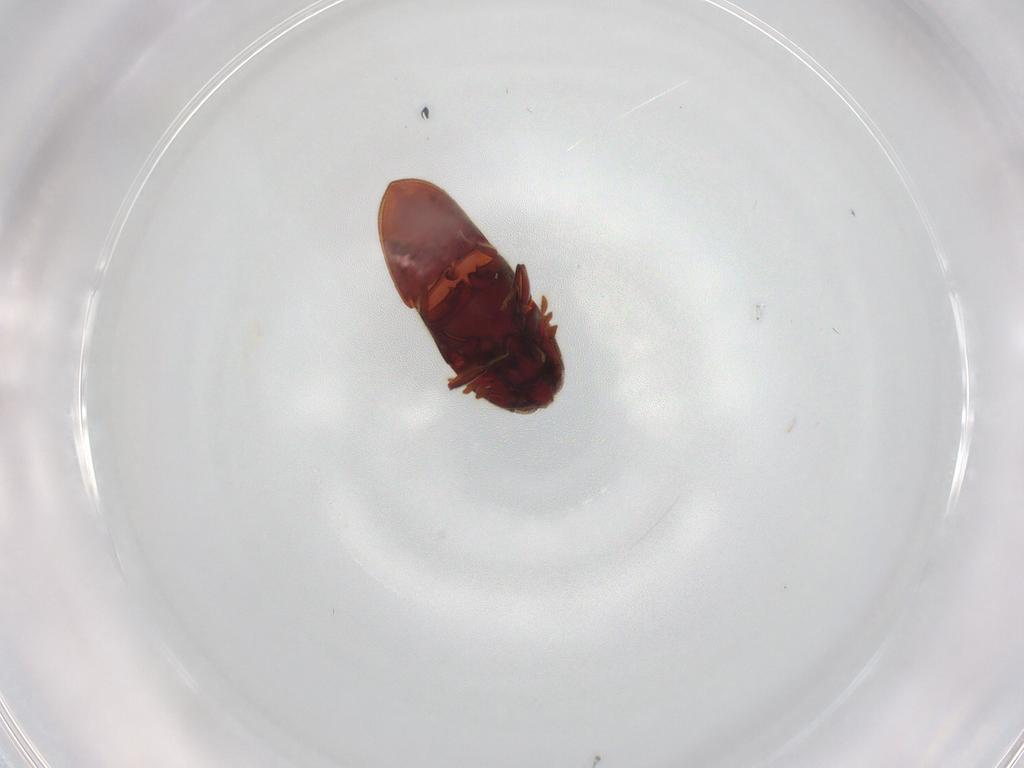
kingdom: Animalia
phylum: Arthropoda
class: Insecta
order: Coleoptera
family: Throscidae
